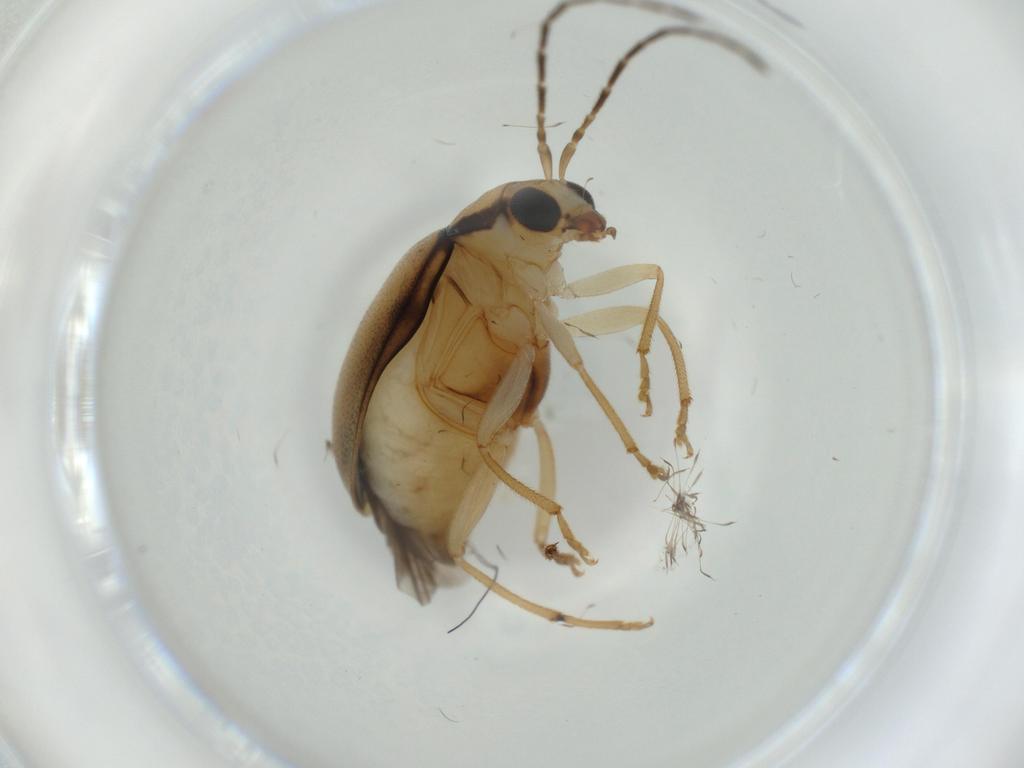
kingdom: Animalia
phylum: Arthropoda
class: Insecta
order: Coleoptera
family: Chrysomelidae
